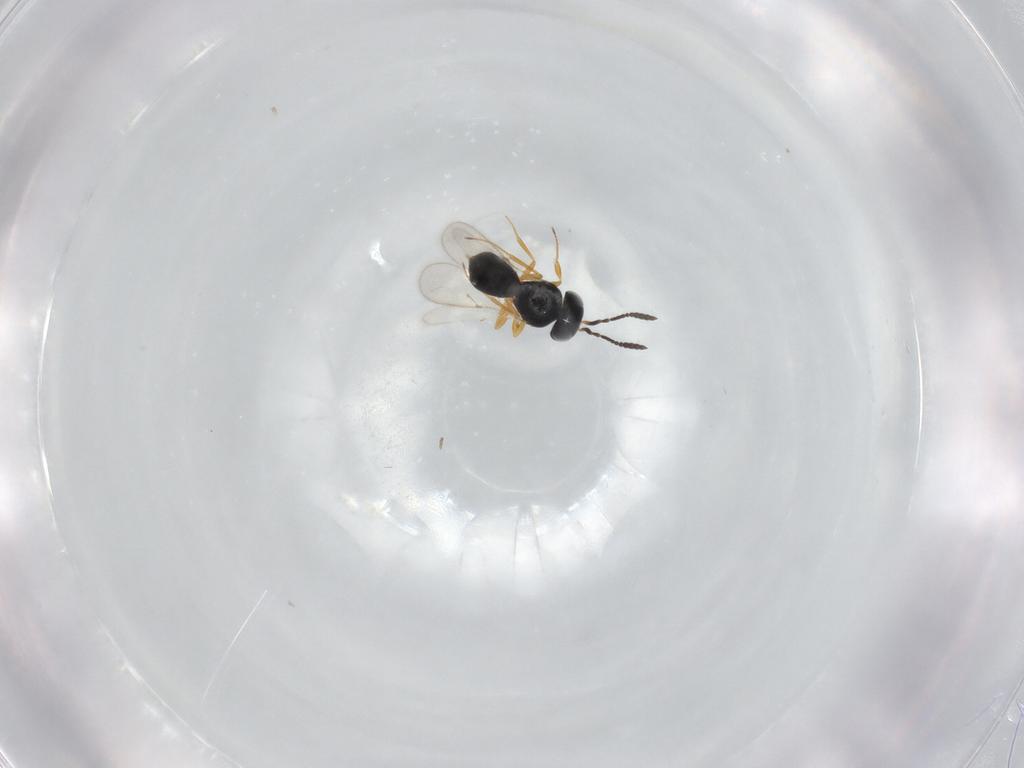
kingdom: Animalia
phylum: Arthropoda
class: Insecta
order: Hymenoptera
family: Scelionidae
